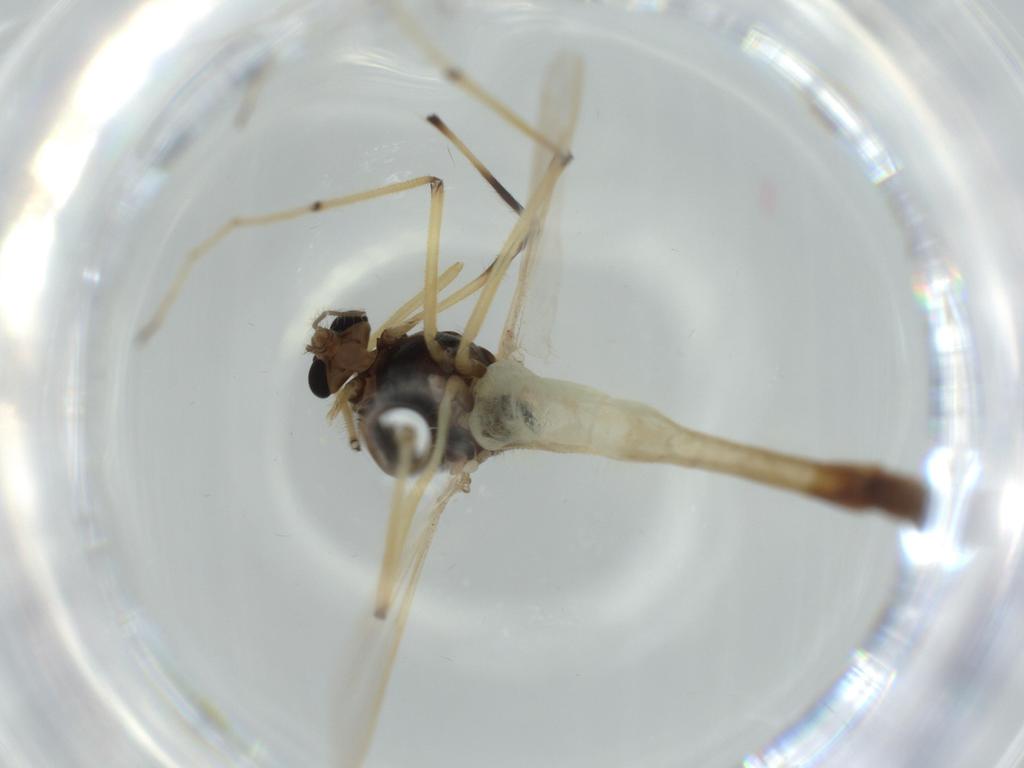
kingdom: Animalia
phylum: Arthropoda
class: Insecta
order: Diptera
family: Chironomidae
